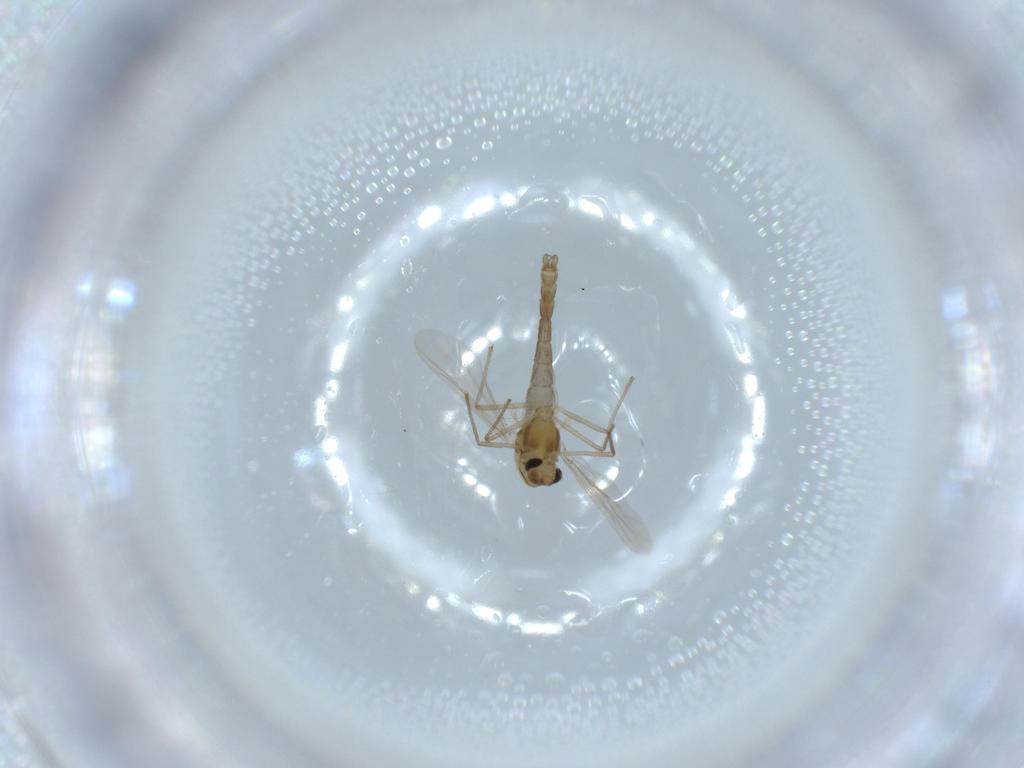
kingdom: Animalia
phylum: Arthropoda
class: Insecta
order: Diptera
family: Chironomidae
